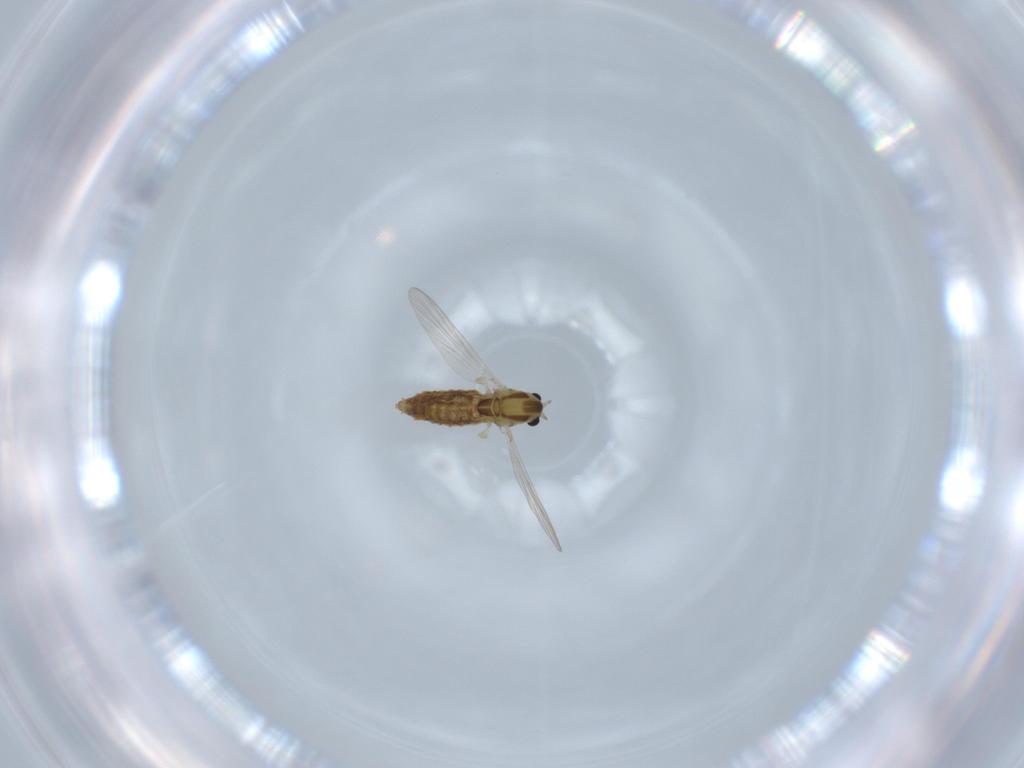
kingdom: Animalia
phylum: Arthropoda
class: Insecta
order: Diptera
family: Chironomidae
